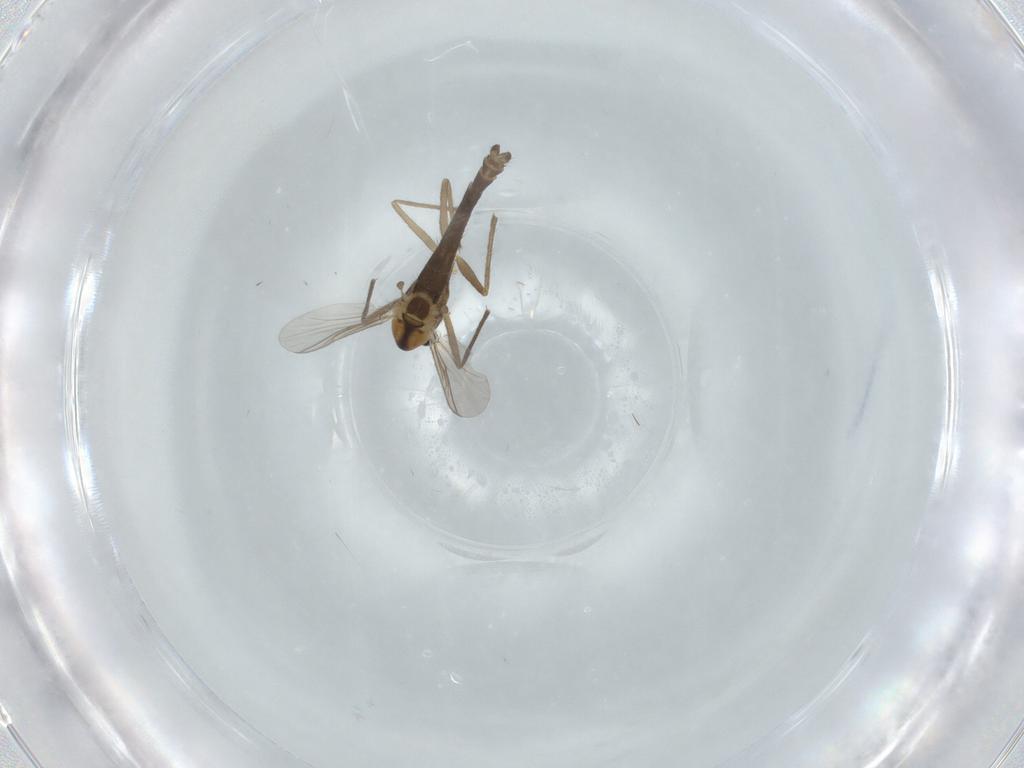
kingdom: Animalia
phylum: Arthropoda
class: Insecta
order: Diptera
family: Chironomidae
